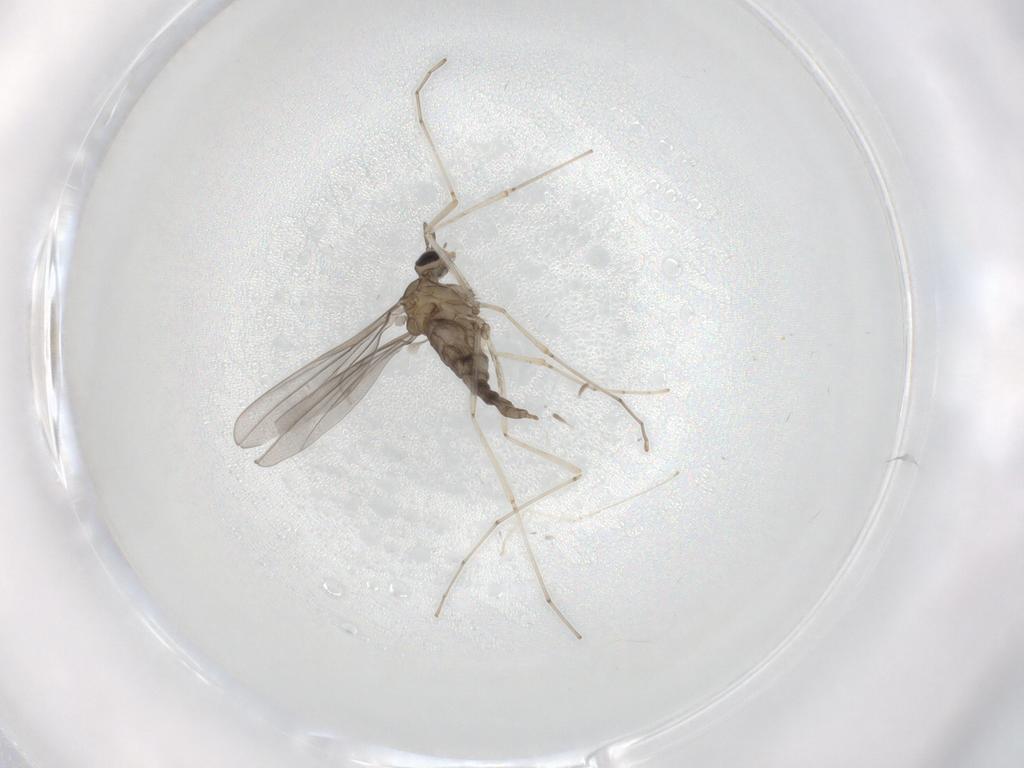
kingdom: Animalia
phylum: Arthropoda
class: Insecta
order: Diptera
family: Cecidomyiidae
